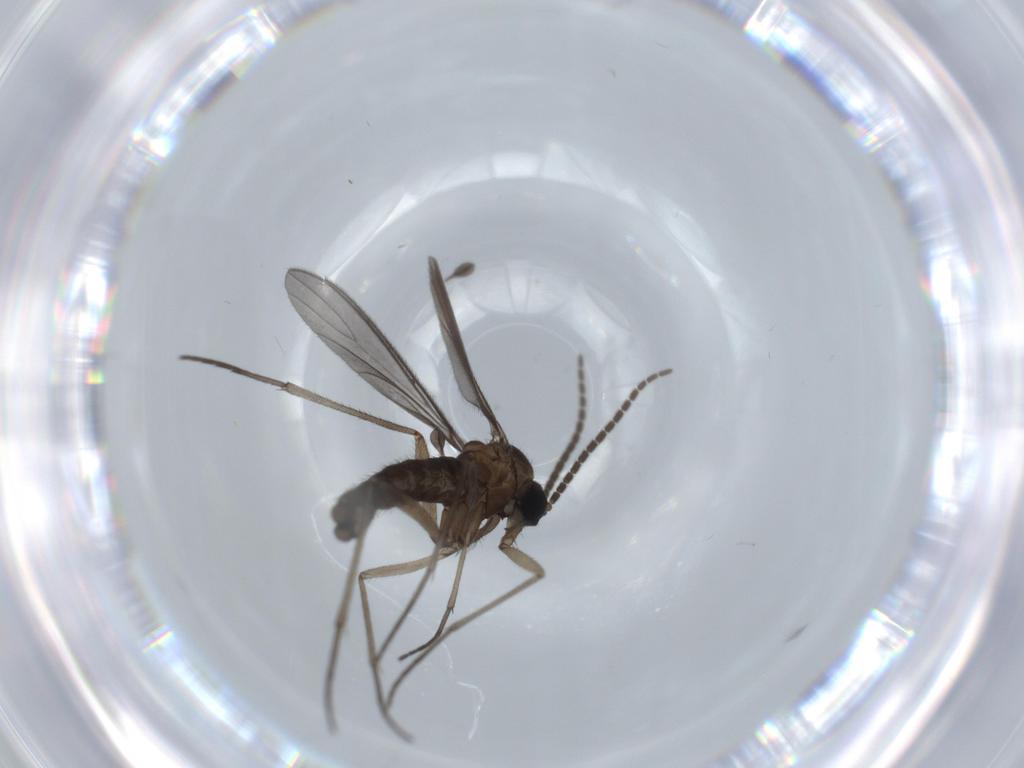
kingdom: Animalia
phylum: Arthropoda
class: Insecta
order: Diptera
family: Sciaridae
